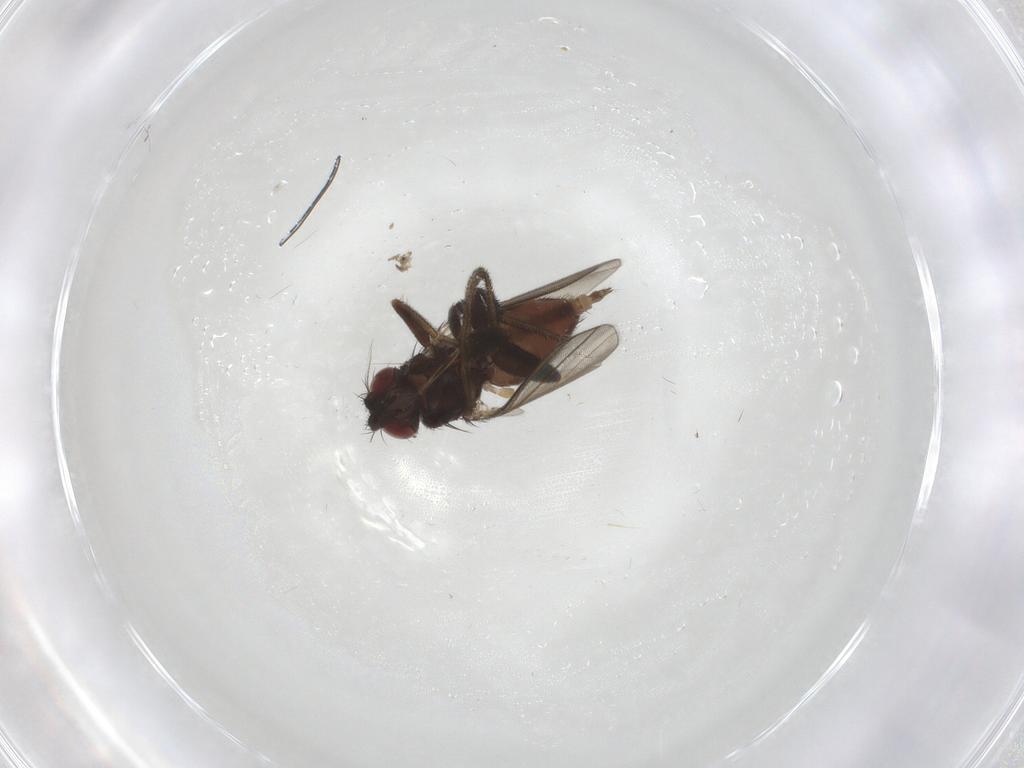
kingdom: Animalia
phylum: Arthropoda
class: Insecta
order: Diptera
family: Milichiidae
